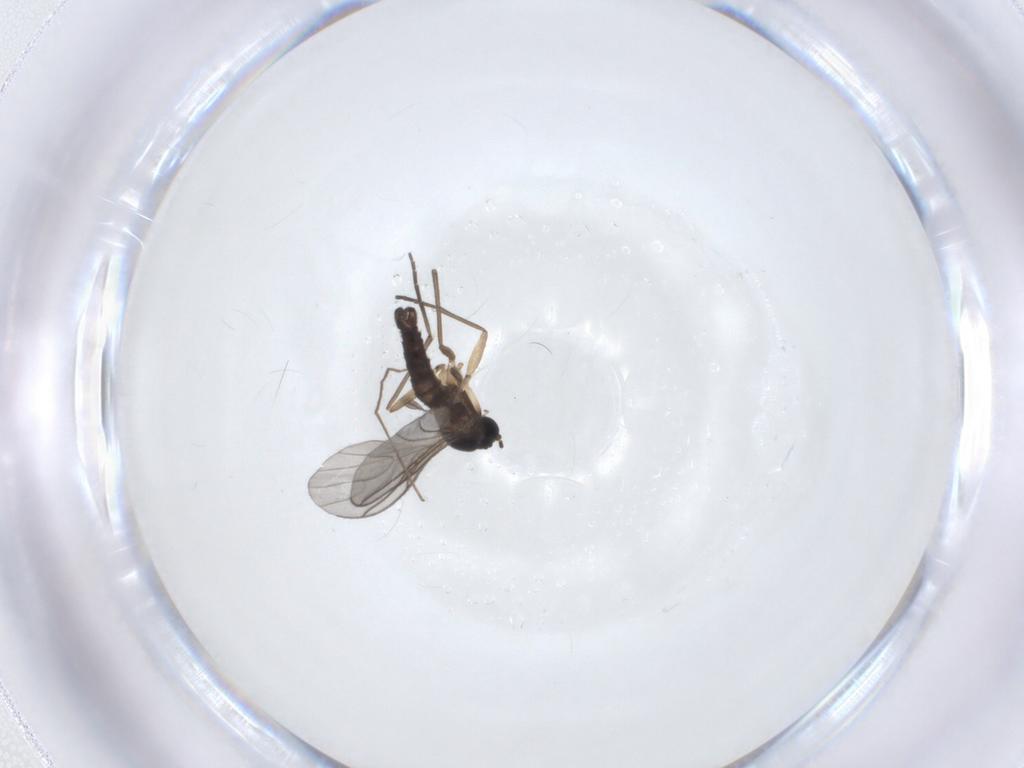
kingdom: Animalia
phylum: Arthropoda
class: Insecta
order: Diptera
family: Sciaridae
